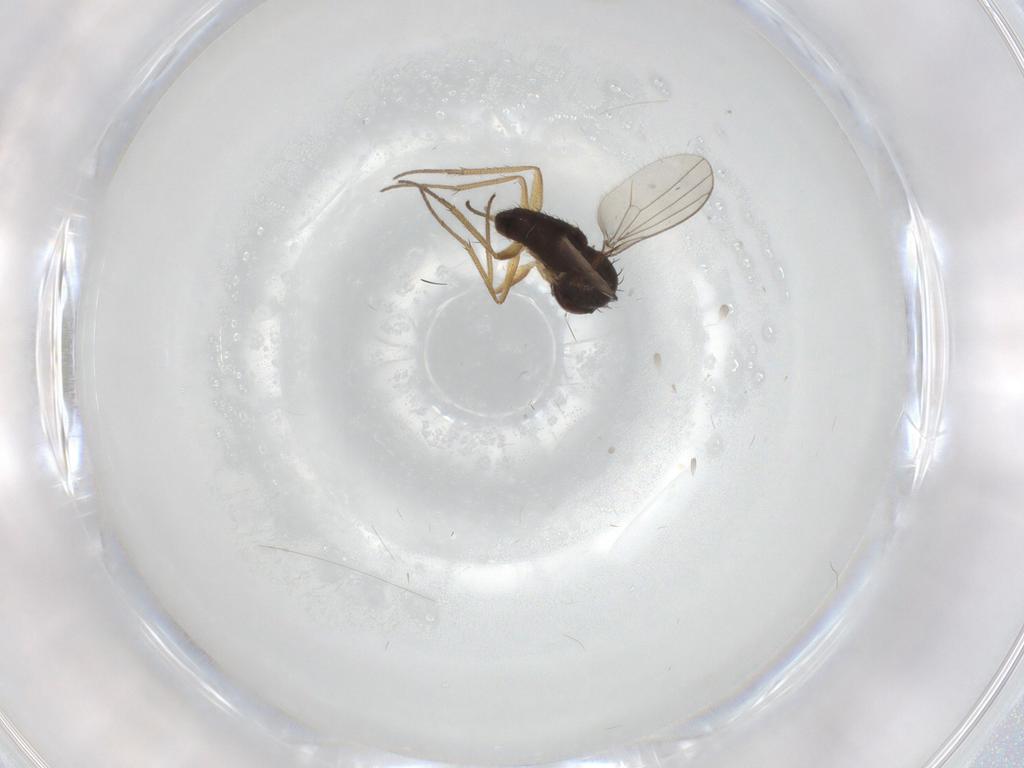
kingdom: Animalia
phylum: Arthropoda
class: Insecta
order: Diptera
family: Dolichopodidae
